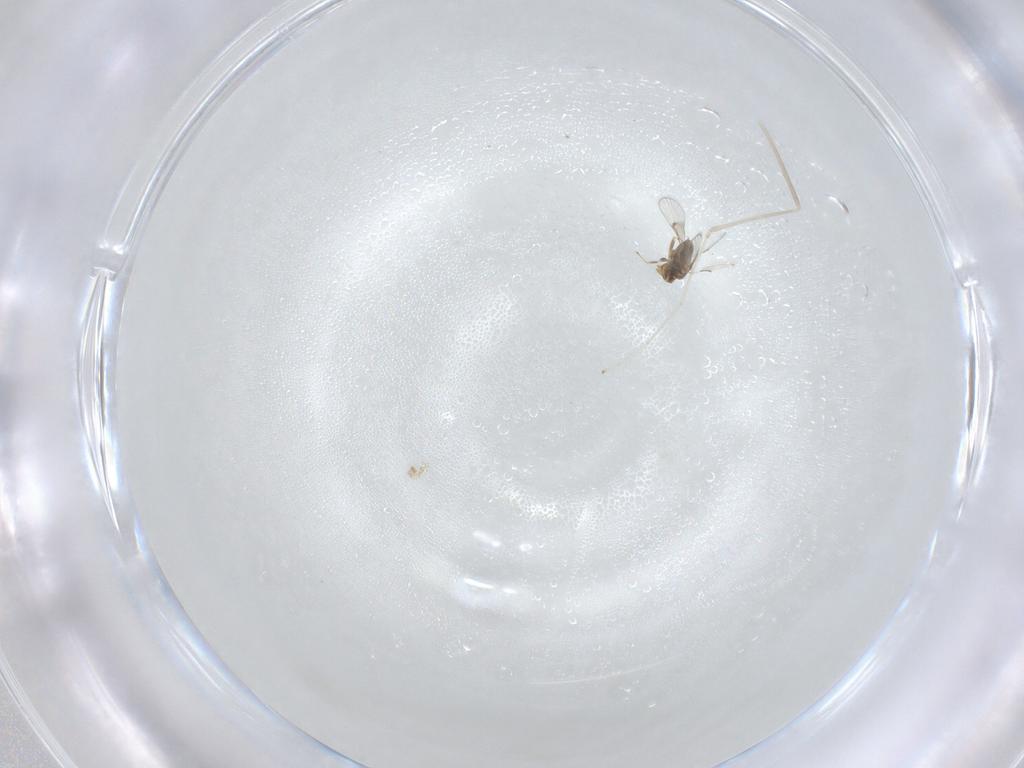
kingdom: Animalia
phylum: Arthropoda
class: Insecta
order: Diptera
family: Cecidomyiidae
